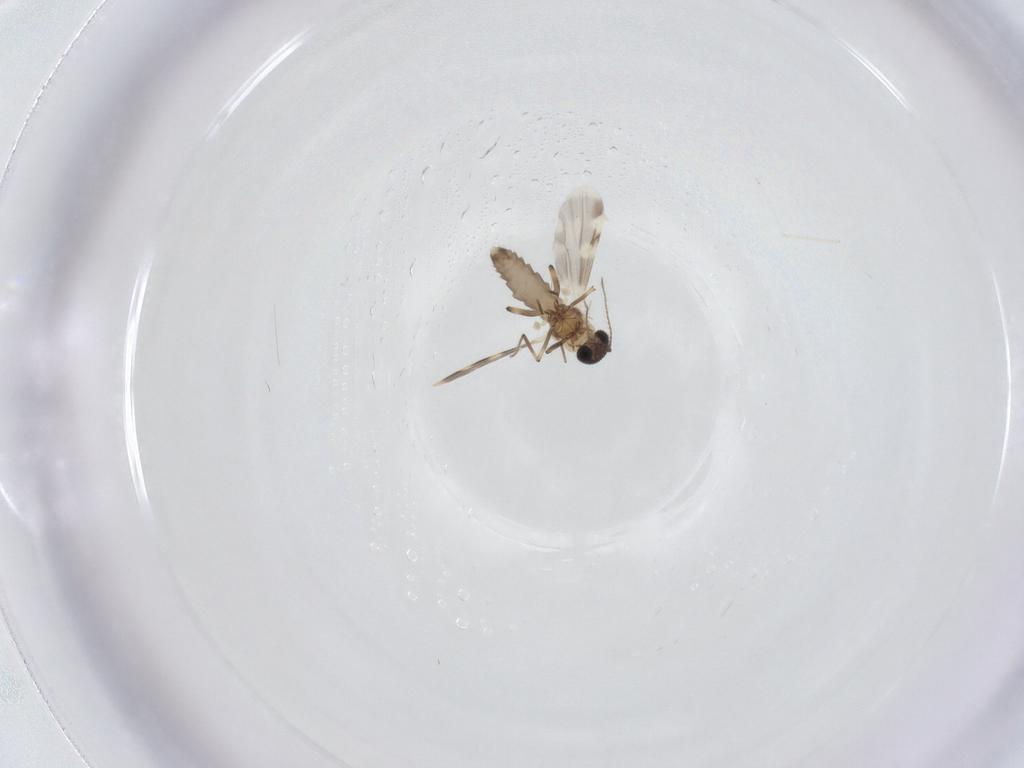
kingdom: Animalia
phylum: Arthropoda
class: Insecta
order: Diptera
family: Ceratopogonidae
